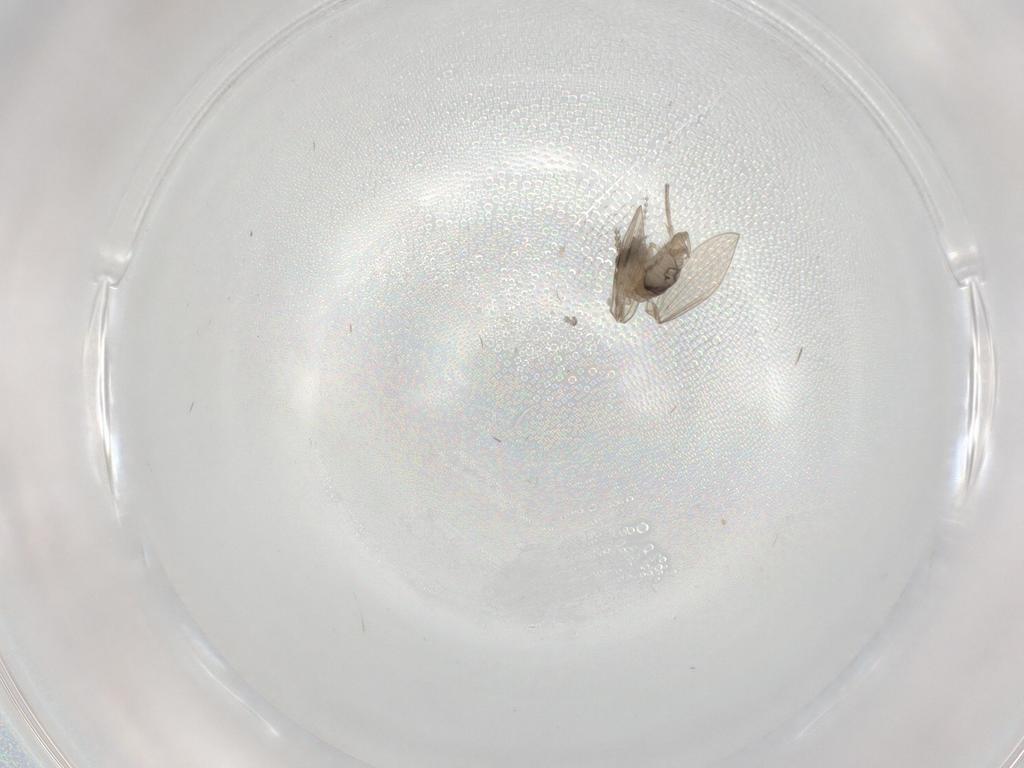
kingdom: Animalia
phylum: Arthropoda
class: Insecta
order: Diptera
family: Psychodidae
